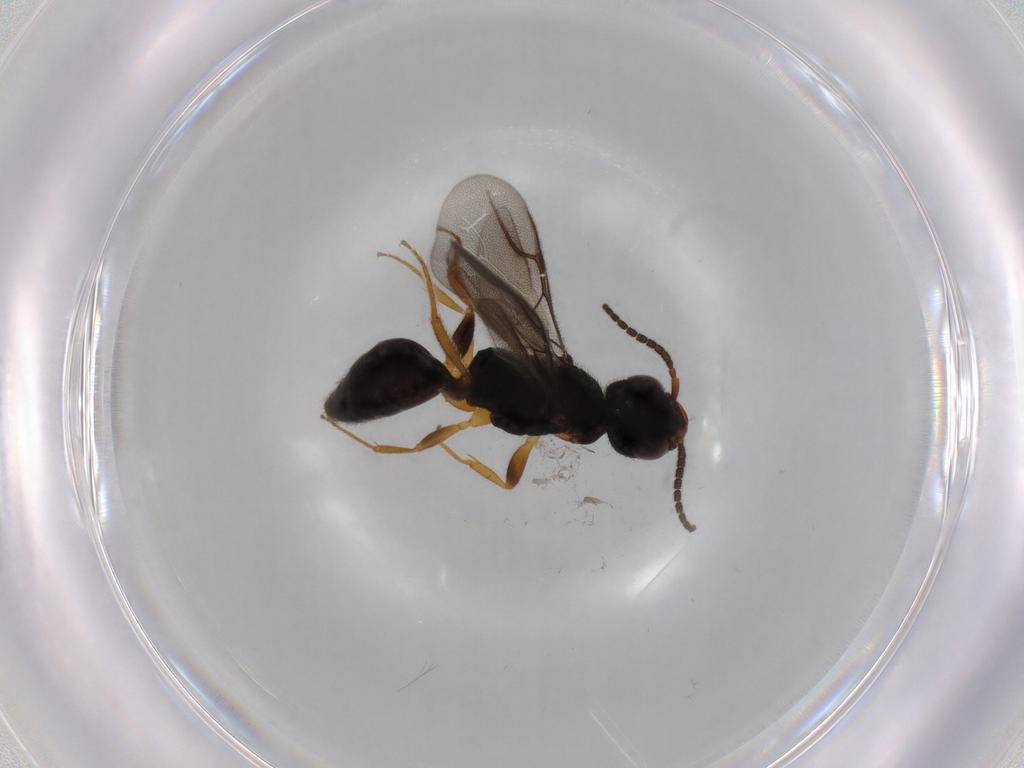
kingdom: Animalia
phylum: Arthropoda
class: Insecta
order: Hymenoptera
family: Bethylidae
